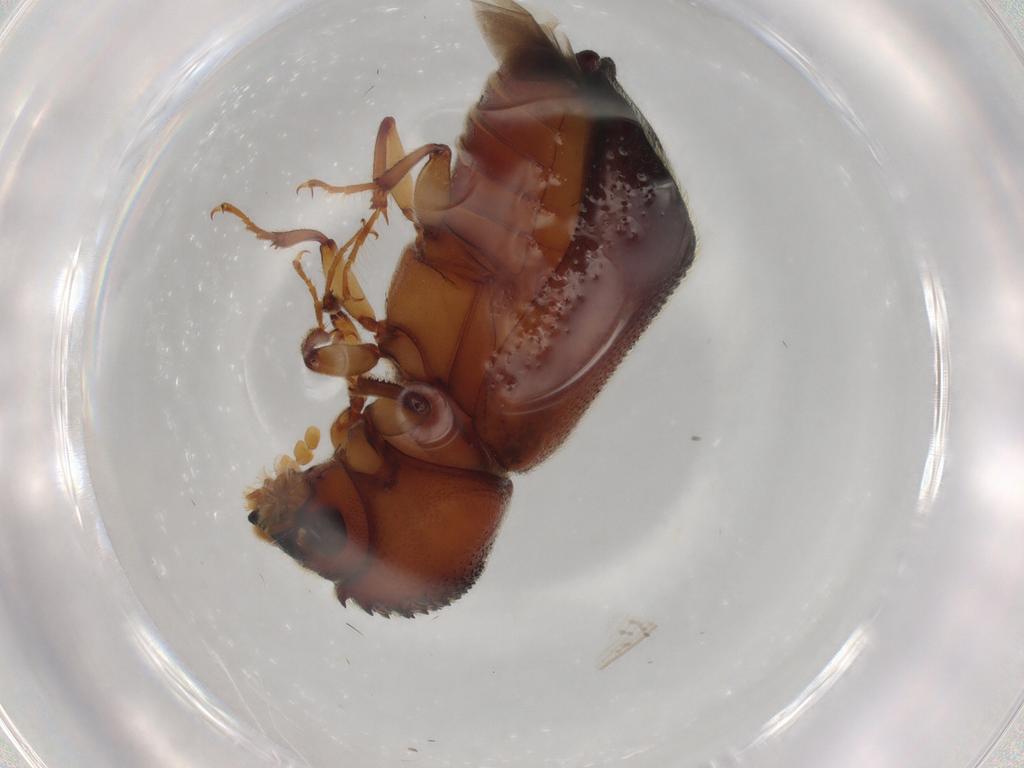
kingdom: Animalia
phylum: Arthropoda
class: Insecta
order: Coleoptera
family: Bostrichidae
